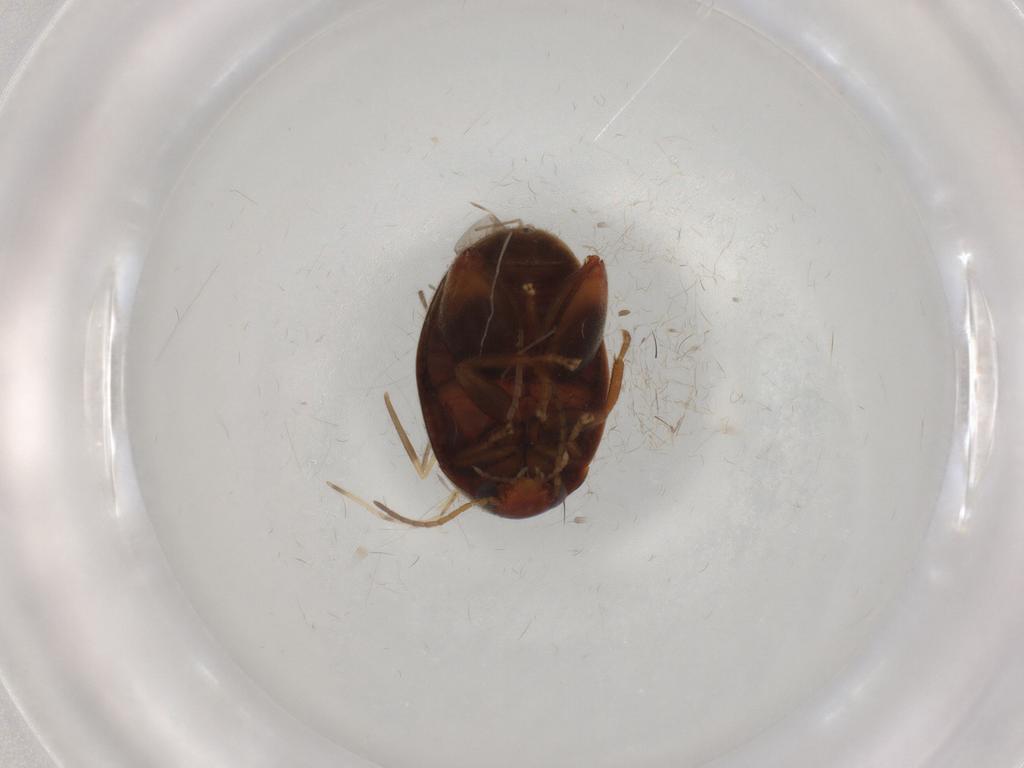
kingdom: Animalia
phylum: Arthropoda
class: Insecta
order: Coleoptera
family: Scirtidae
